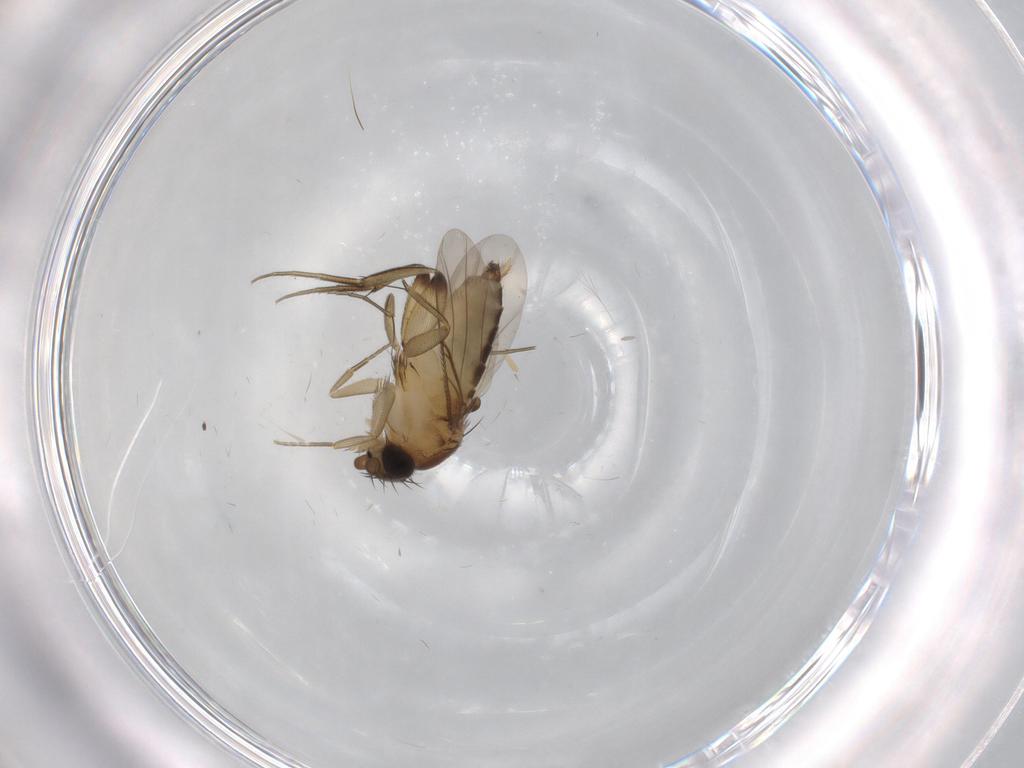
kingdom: Animalia
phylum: Arthropoda
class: Insecta
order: Diptera
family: Phoridae
